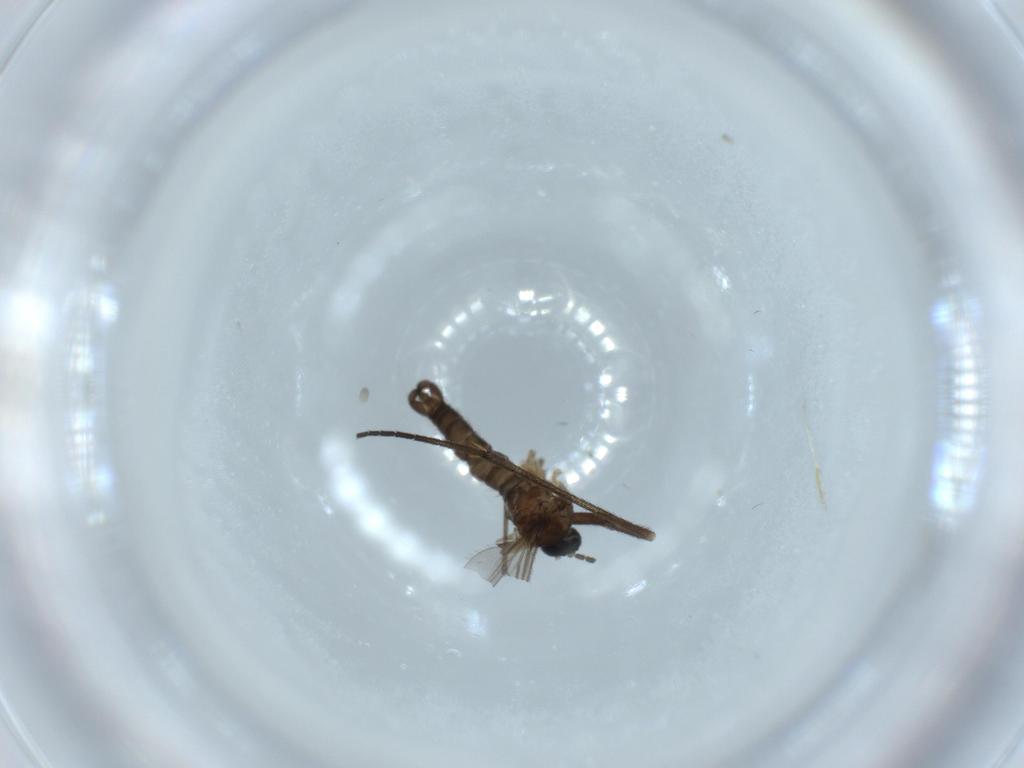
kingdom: Animalia
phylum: Arthropoda
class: Insecta
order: Diptera
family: Sciaridae
